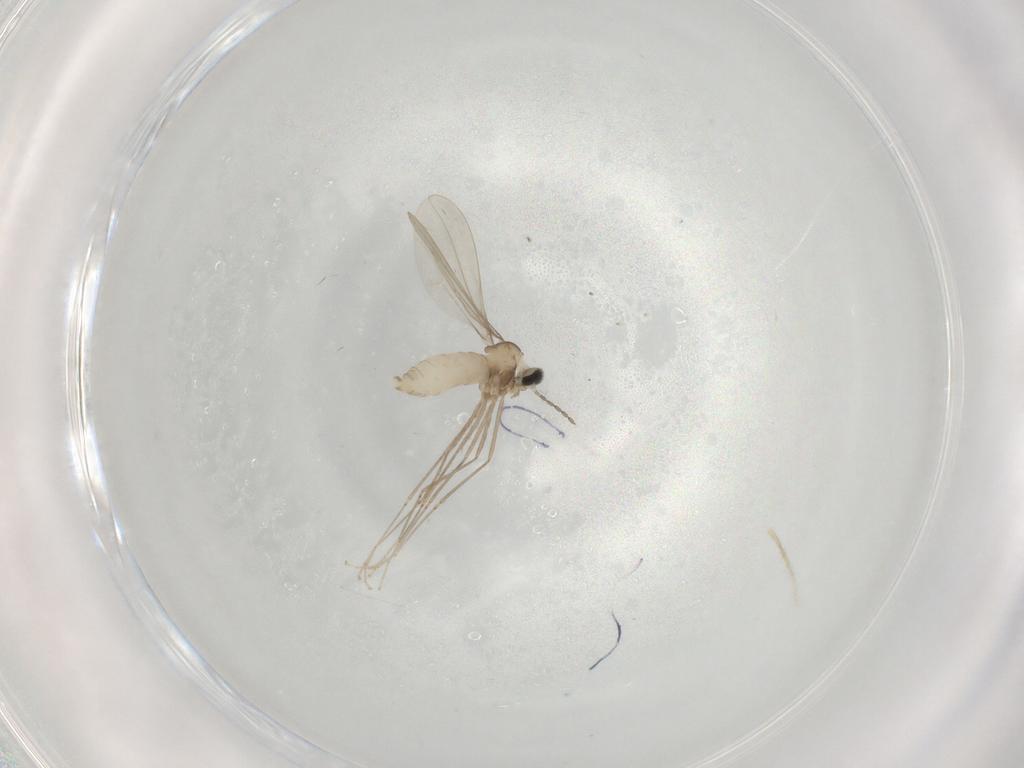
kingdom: Animalia
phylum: Arthropoda
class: Insecta
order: Diptera
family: Cecidomyiidae
